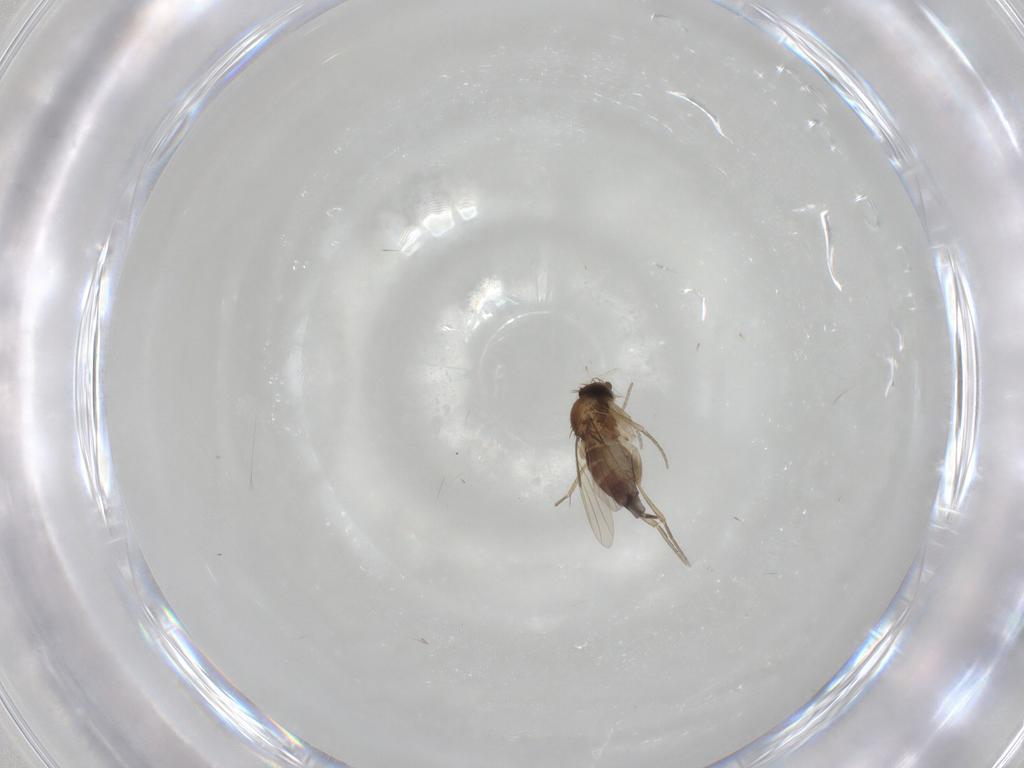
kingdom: Animalia
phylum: Arthropoda
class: Insecta
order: Diptera
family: Phoridae
